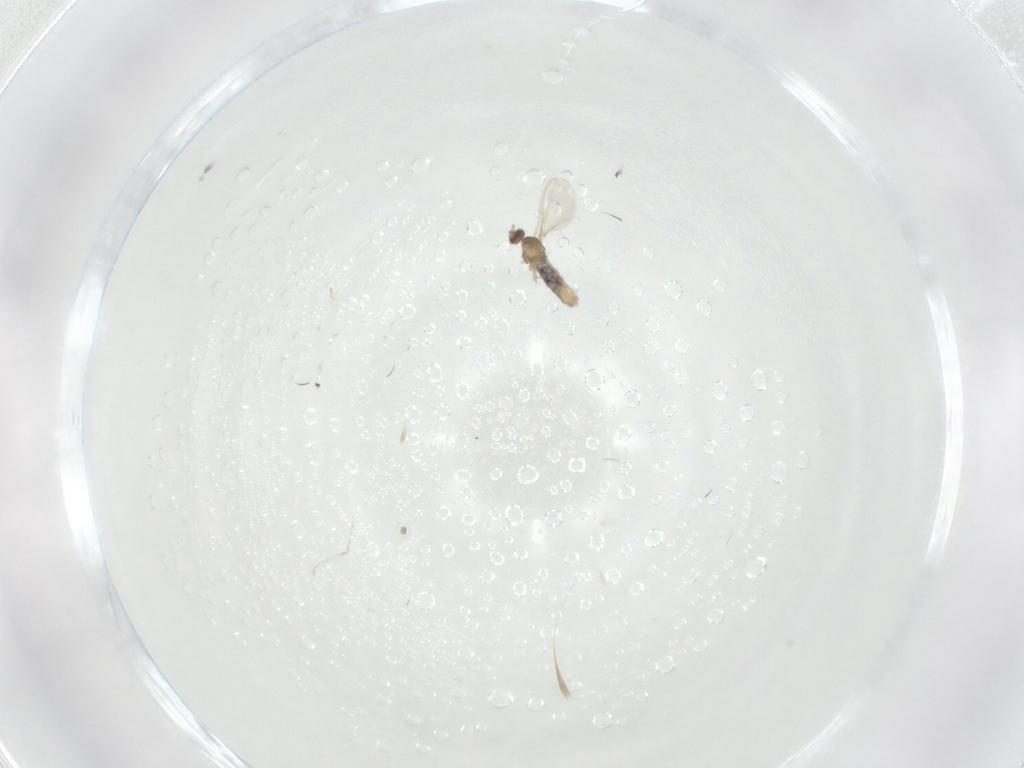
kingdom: Animalia
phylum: Arthropoda
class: Insecta
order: Diptera
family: Cecidomyiidae
